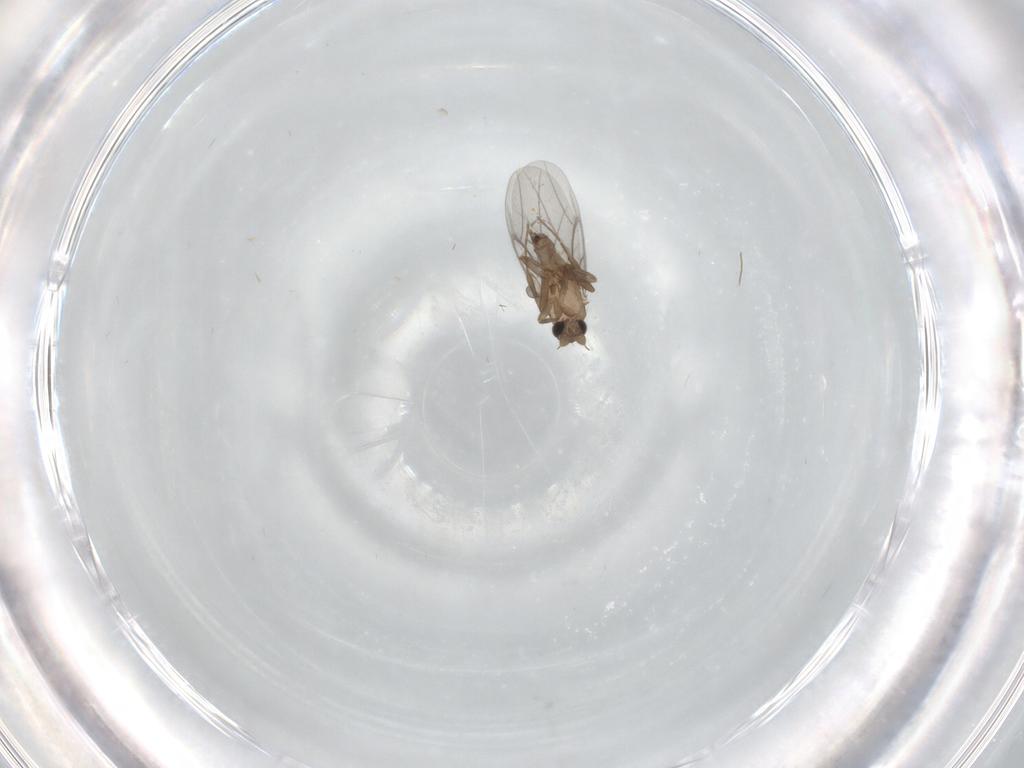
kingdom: Animalia
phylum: Arthropoda
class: Insecta
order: Diptera
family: Chironomidae
